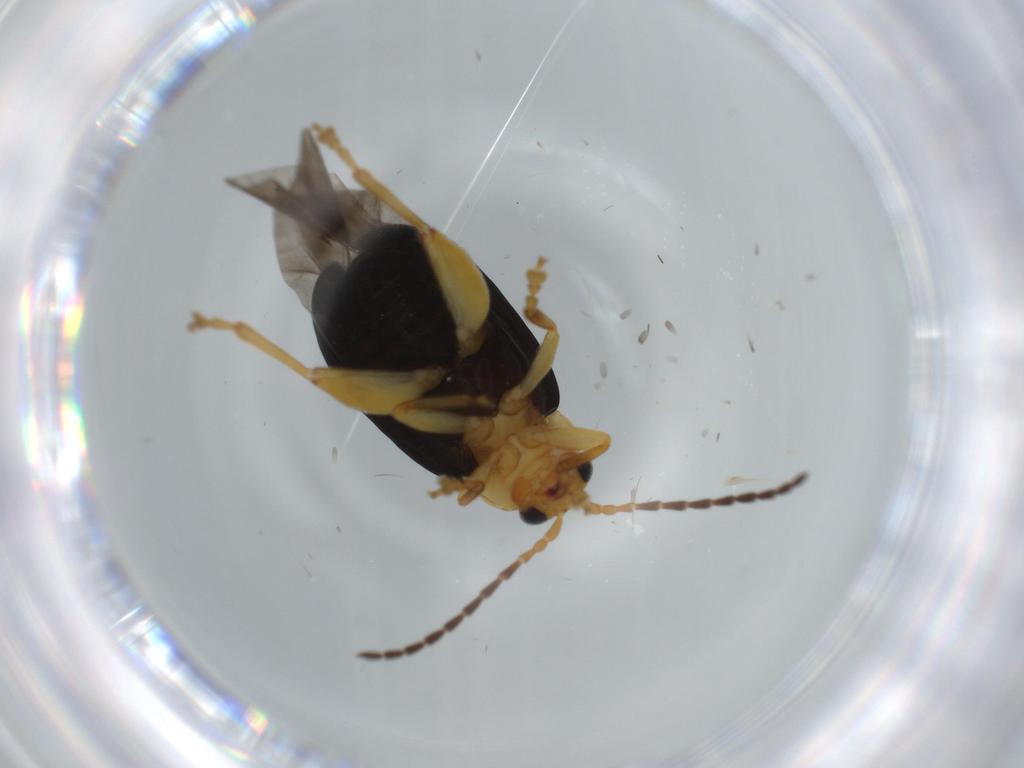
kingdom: Animalia
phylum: Arthropoda
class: Insecta
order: Coleoptera
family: Chrysomelidae
